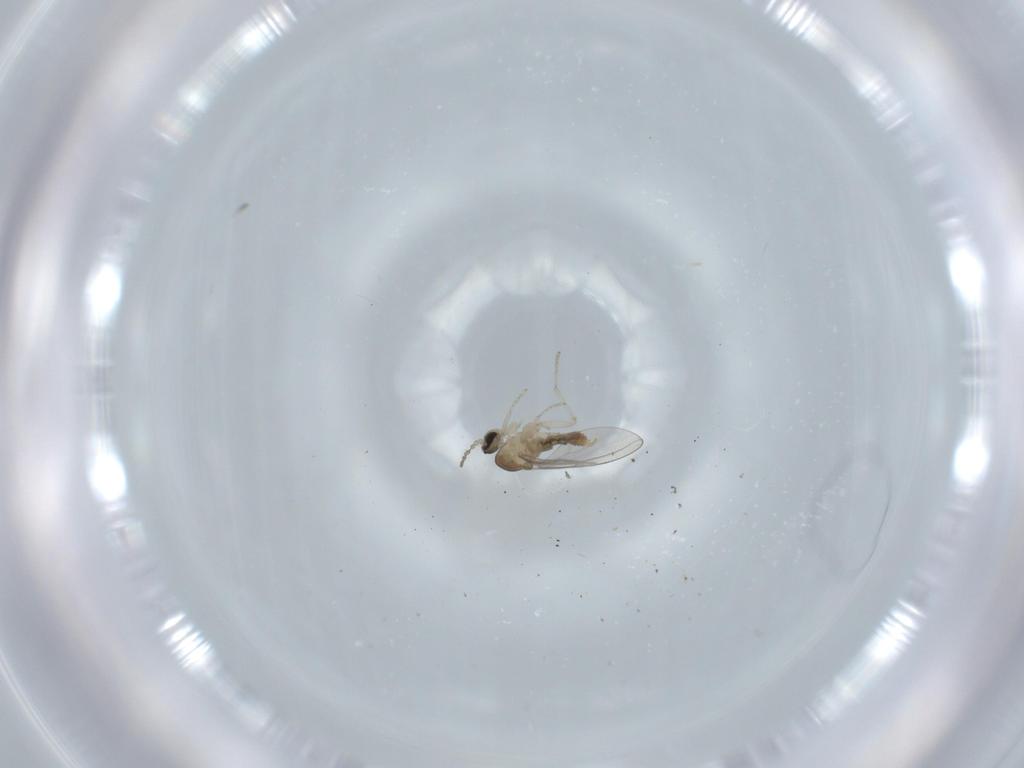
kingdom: Animalia
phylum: Arthropoda
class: Insecta
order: Diptera
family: Cecidomyiidae
